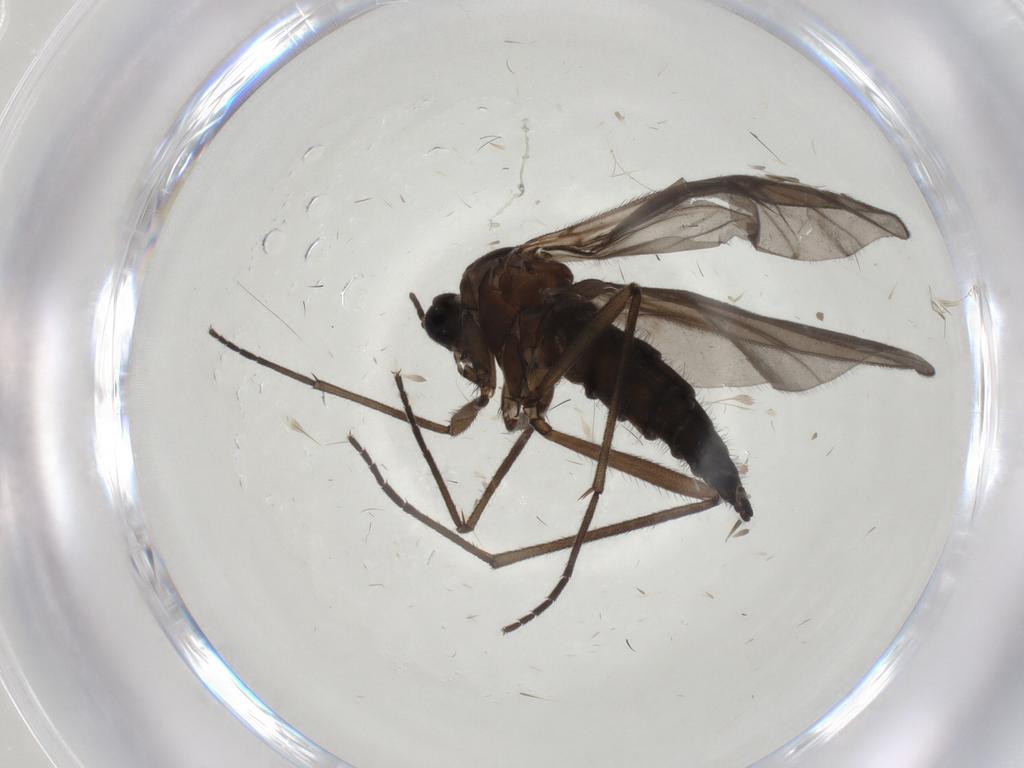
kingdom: Animalia
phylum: Arthropoda
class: Insecta
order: Diptera
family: Sciaridae
